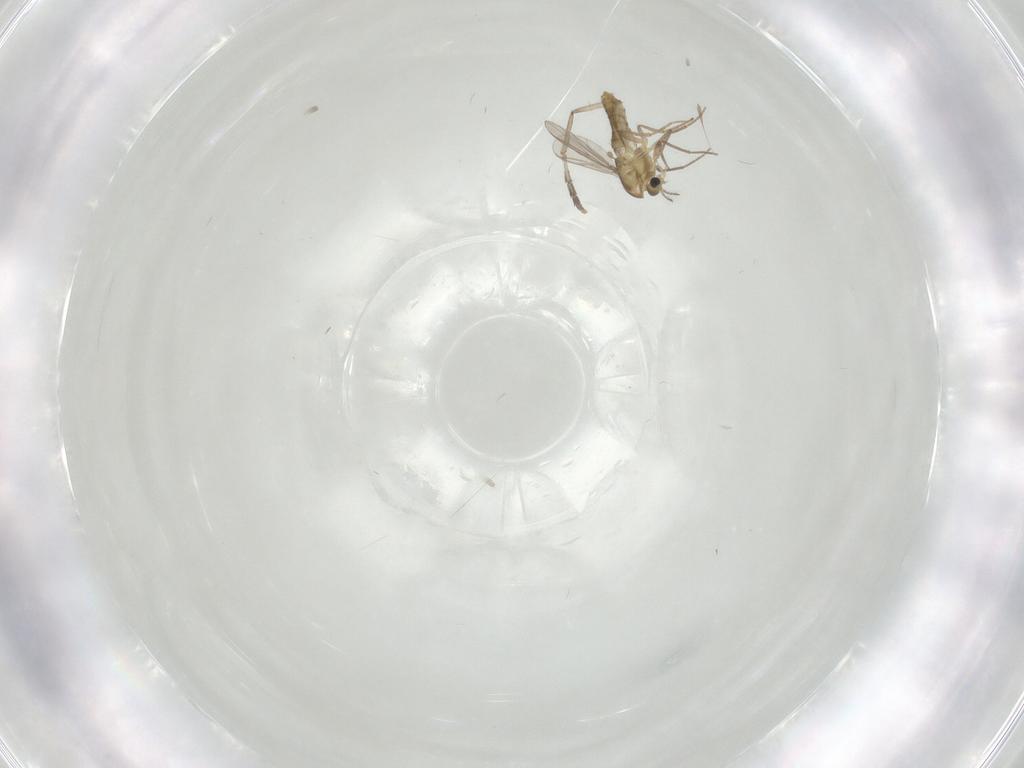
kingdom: Animalia
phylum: Arthropoda
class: Insecta
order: Diptera
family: Chironomidae
